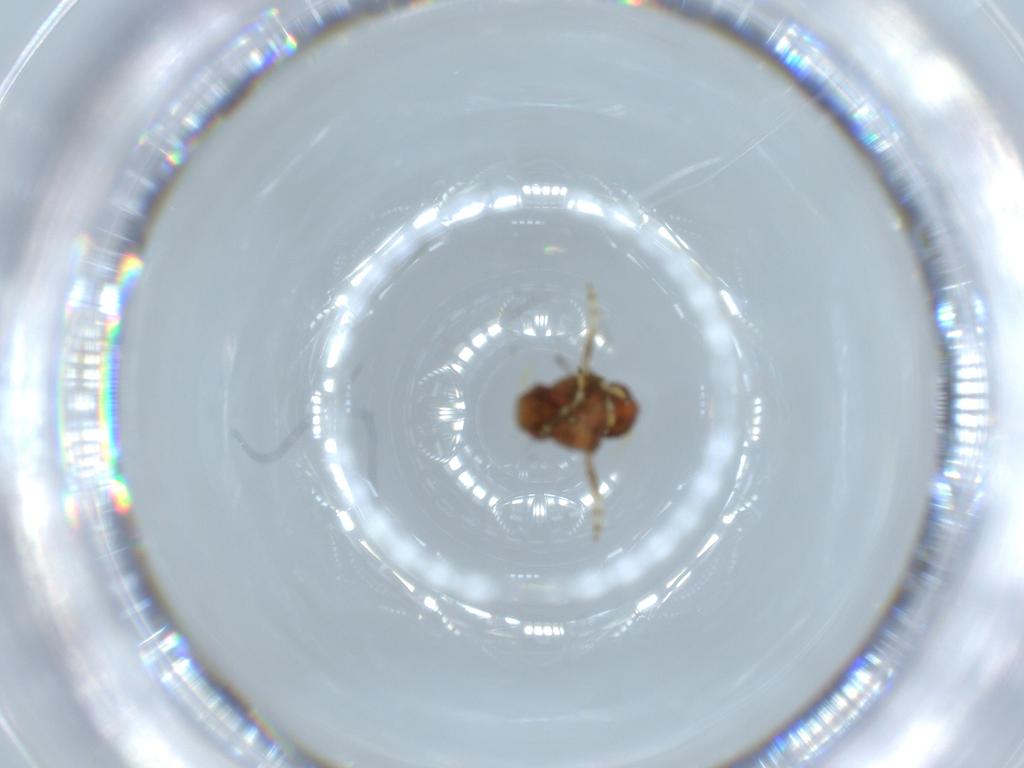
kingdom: Animalia
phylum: Arthropoda
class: Insecta
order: Hemiptera
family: Issidae
